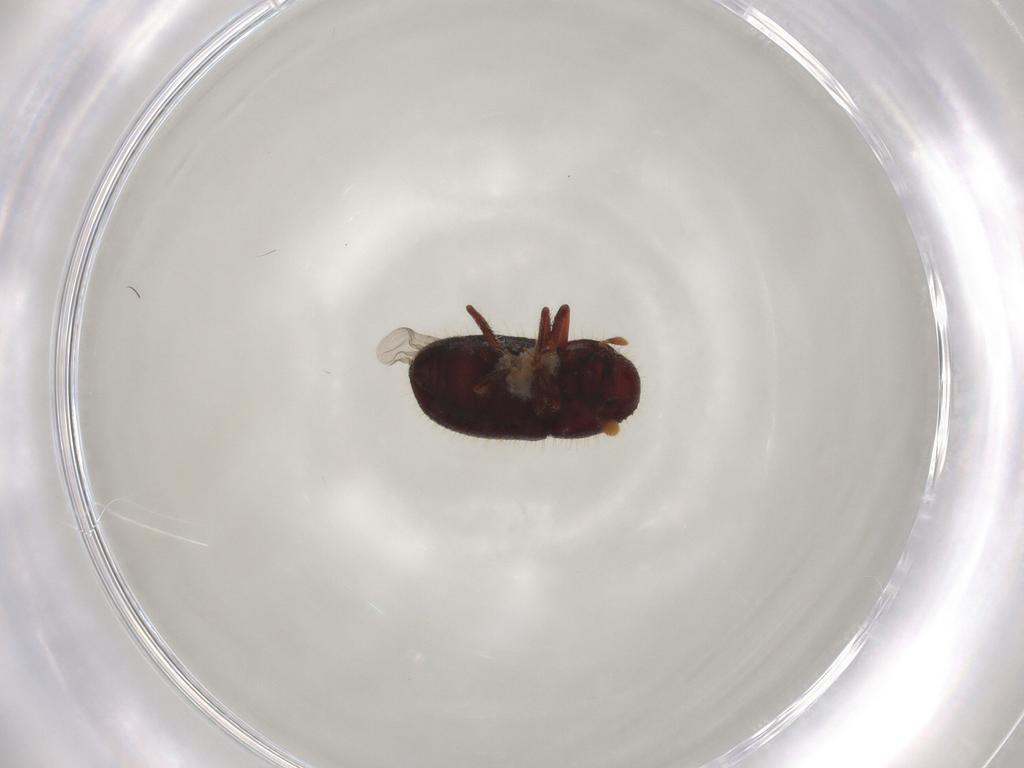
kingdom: Animalia
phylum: Arthropoda
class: Insecta
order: Coleoptera
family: Curculionidae
